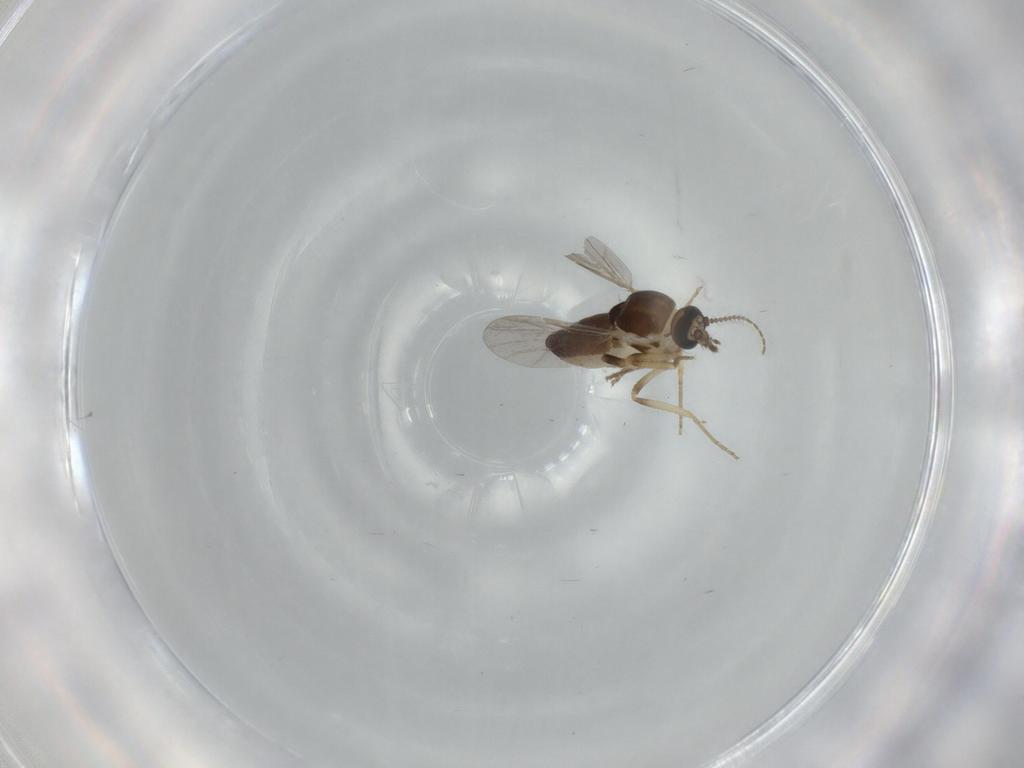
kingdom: Animalia
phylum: Arthropoda
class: Insecta
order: Diptera
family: Ceratopogonidae
